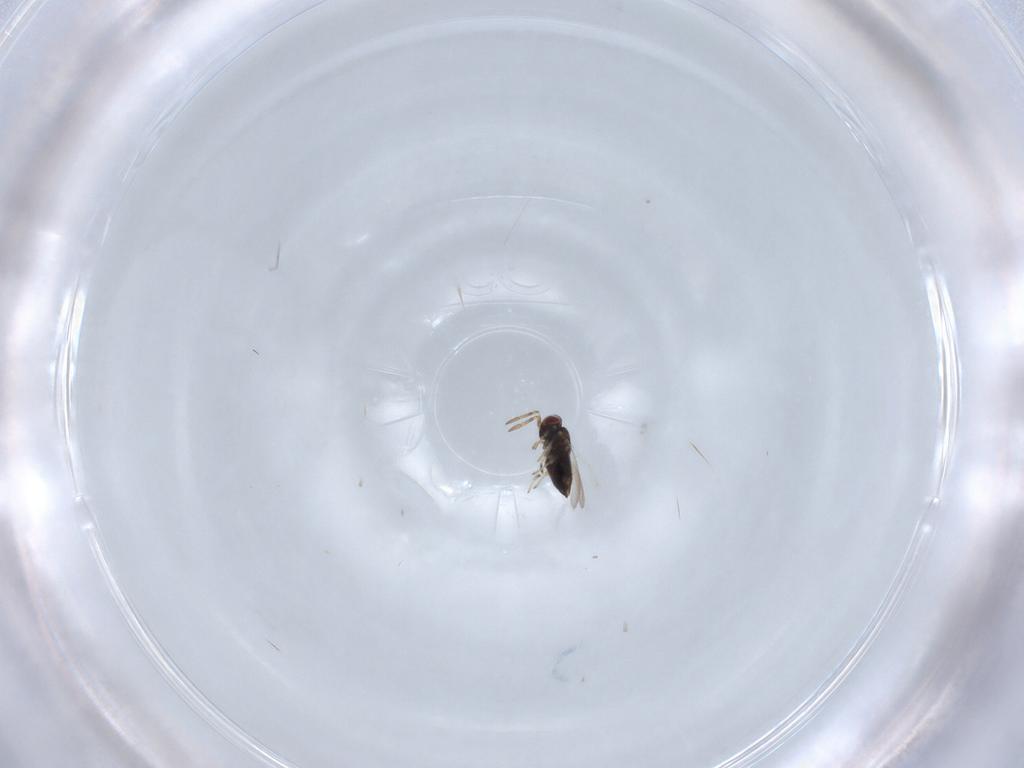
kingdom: Animalia
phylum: Arthropoda
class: Insecta
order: Hymenoptera
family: Aphelinidae
